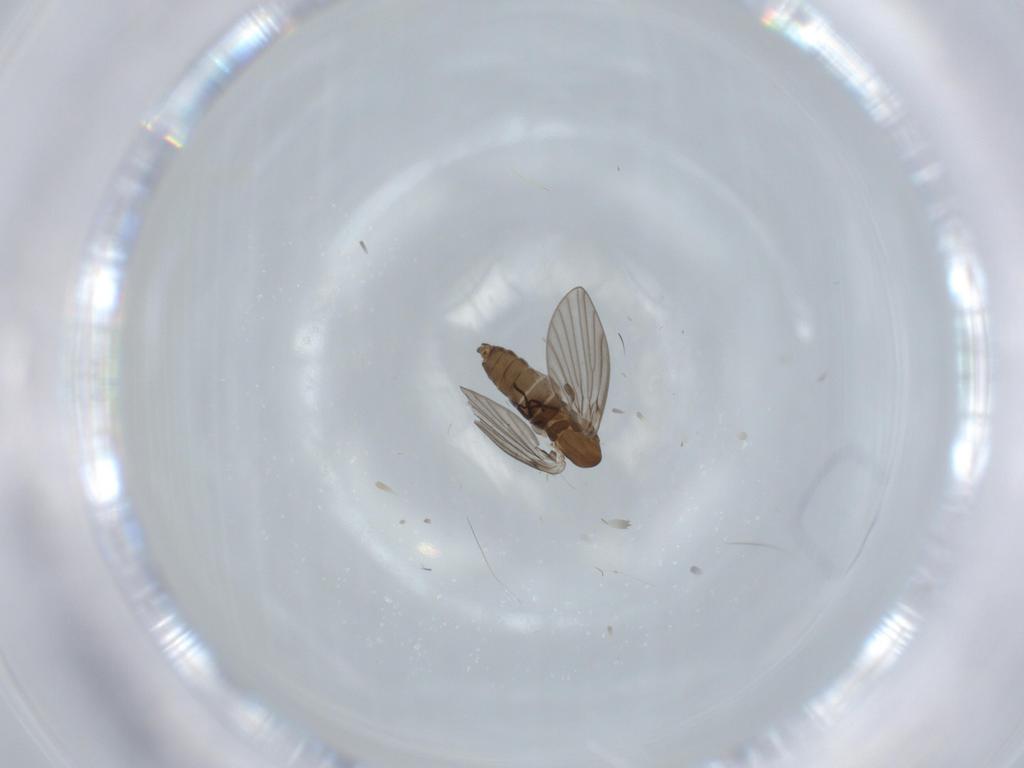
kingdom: Animalia
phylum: Arthropoda
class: Insecta
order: Diptera
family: Psychodidae
